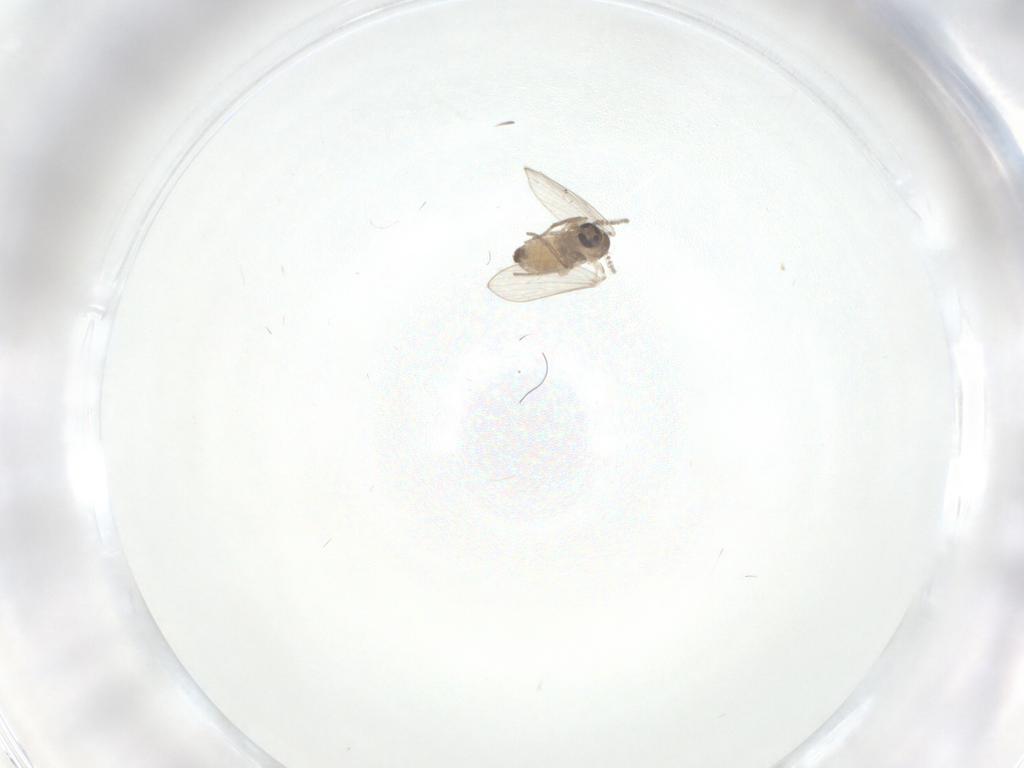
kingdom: Animalia
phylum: Arthropoda
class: Insecta
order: Diptera
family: Psychodidae
